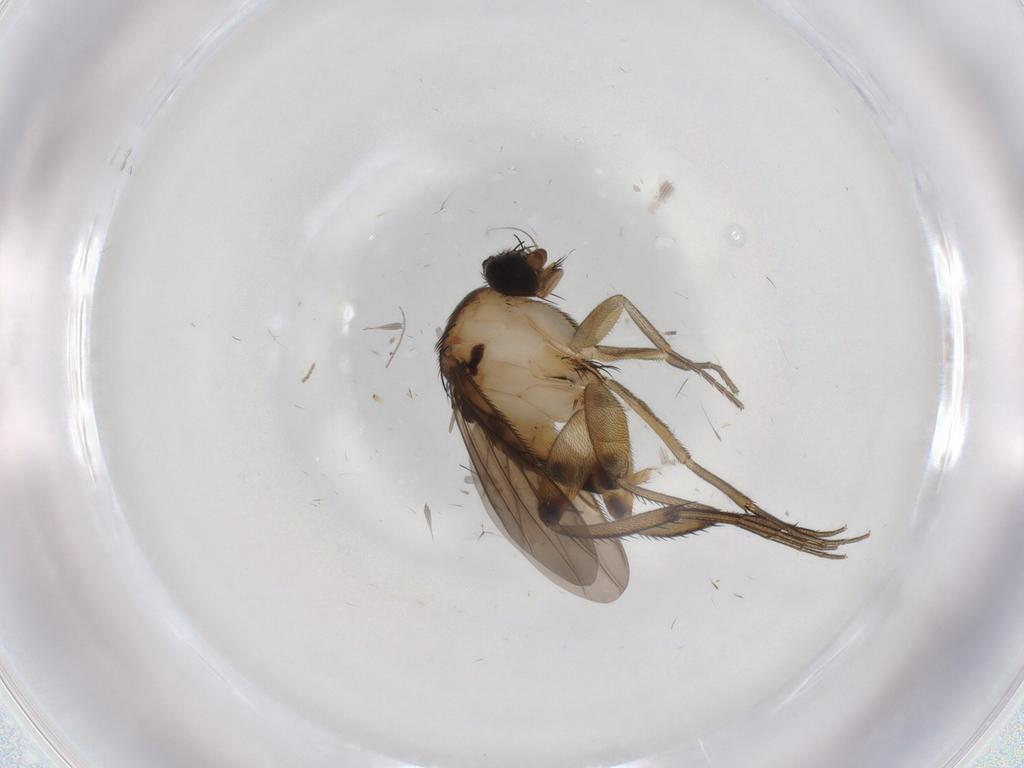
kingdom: Animalia
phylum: Arthropoda
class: Insecta
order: Diptera
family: Phoridae
